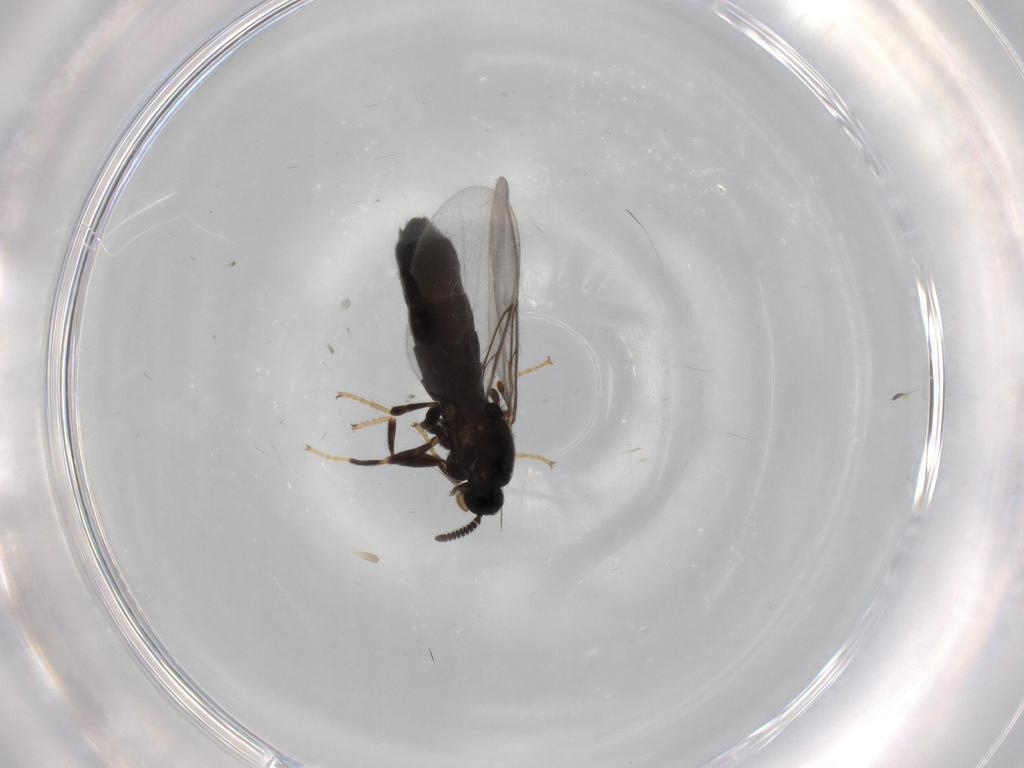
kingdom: Animalia
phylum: Arthropoda
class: Insecta
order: Diptera
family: Scatopsidae
